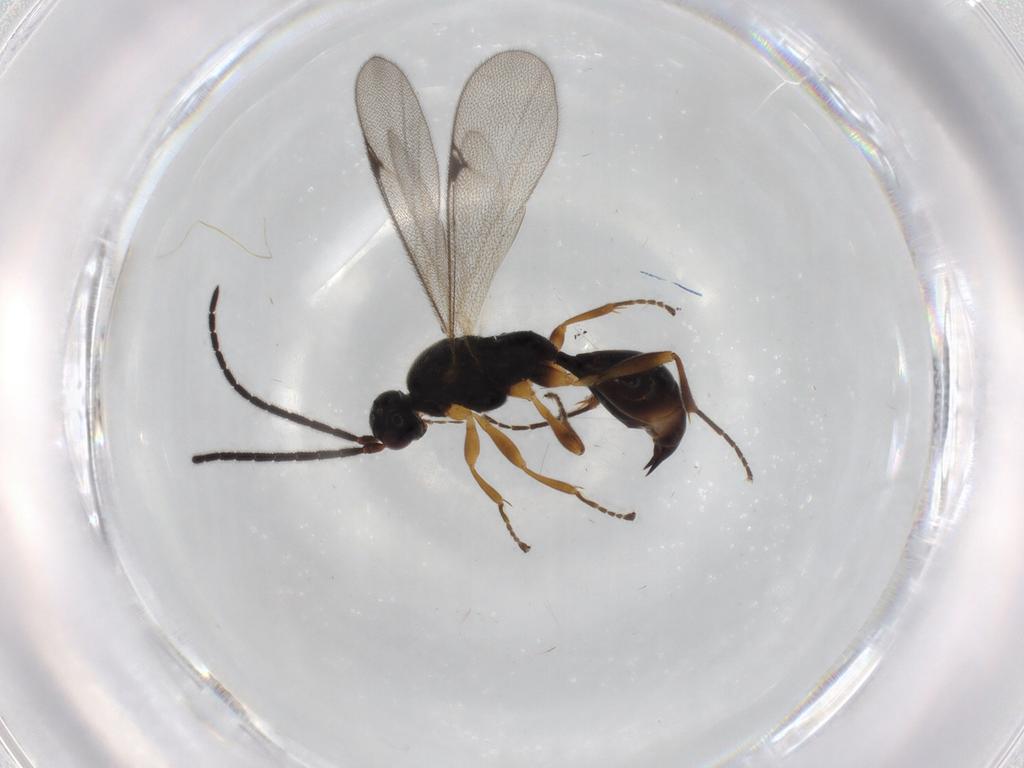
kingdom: Animalia
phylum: Arthropoda
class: Insecta
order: Hymenoptera
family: Proctotrupidae
